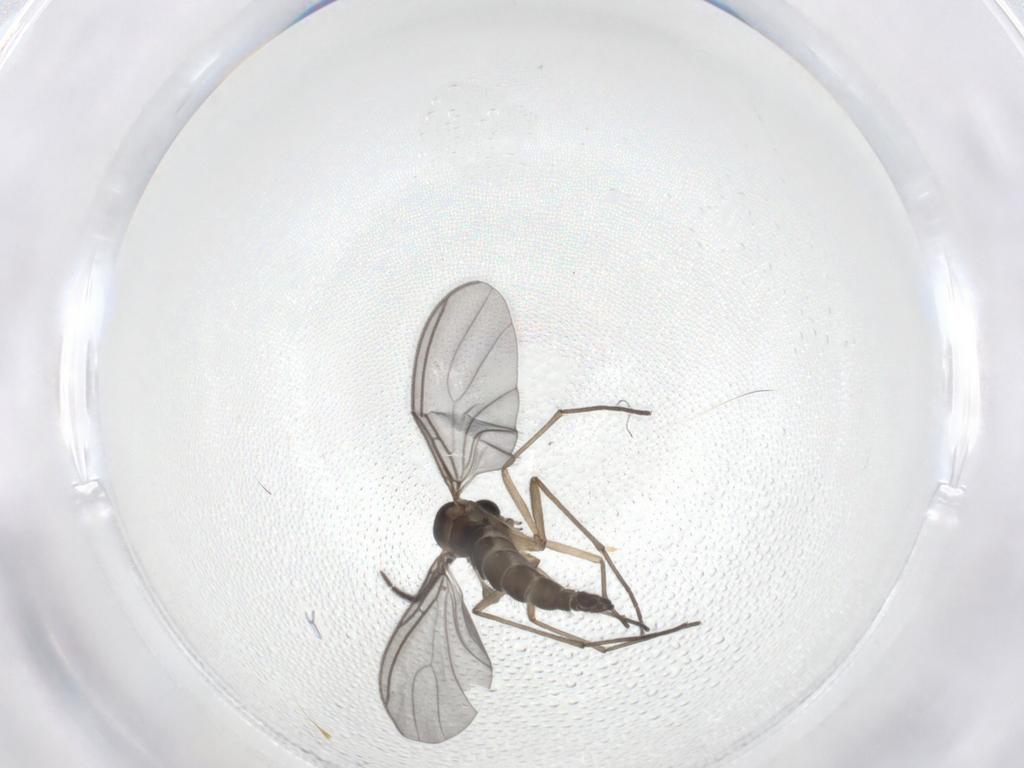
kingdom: Animalia
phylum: Arthropoda
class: Insecta
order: Diptera
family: Sciaridae
